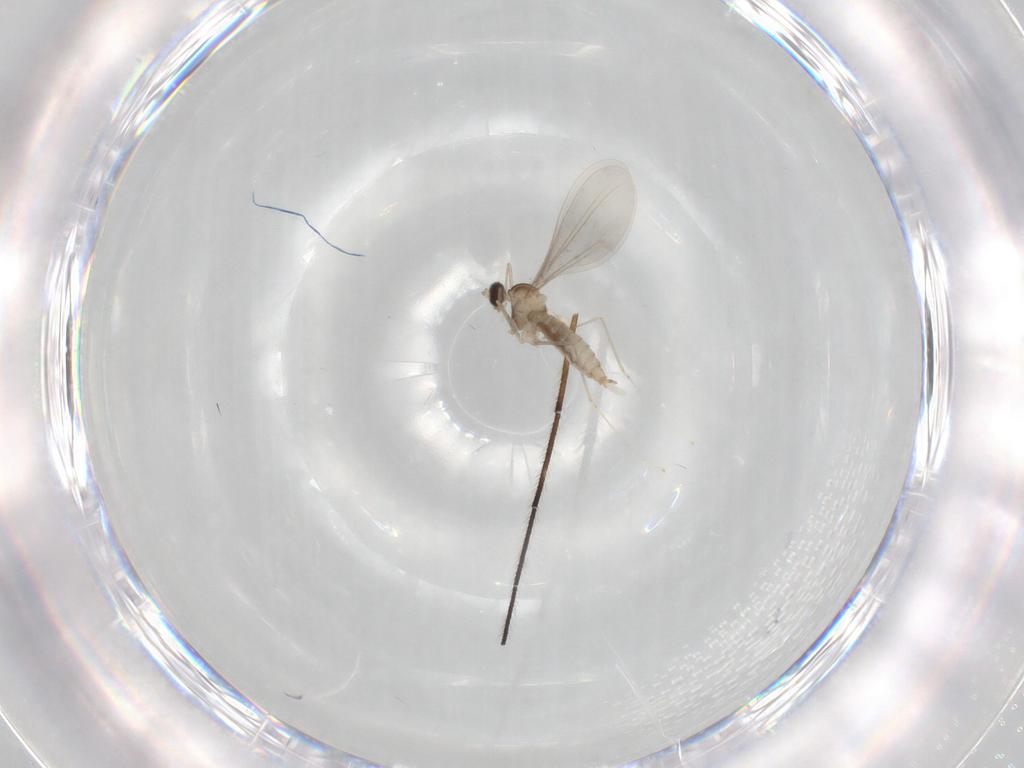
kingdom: Animalia
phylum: Arthropoda
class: Insecta
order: Diptera
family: Cecidomyiidae
